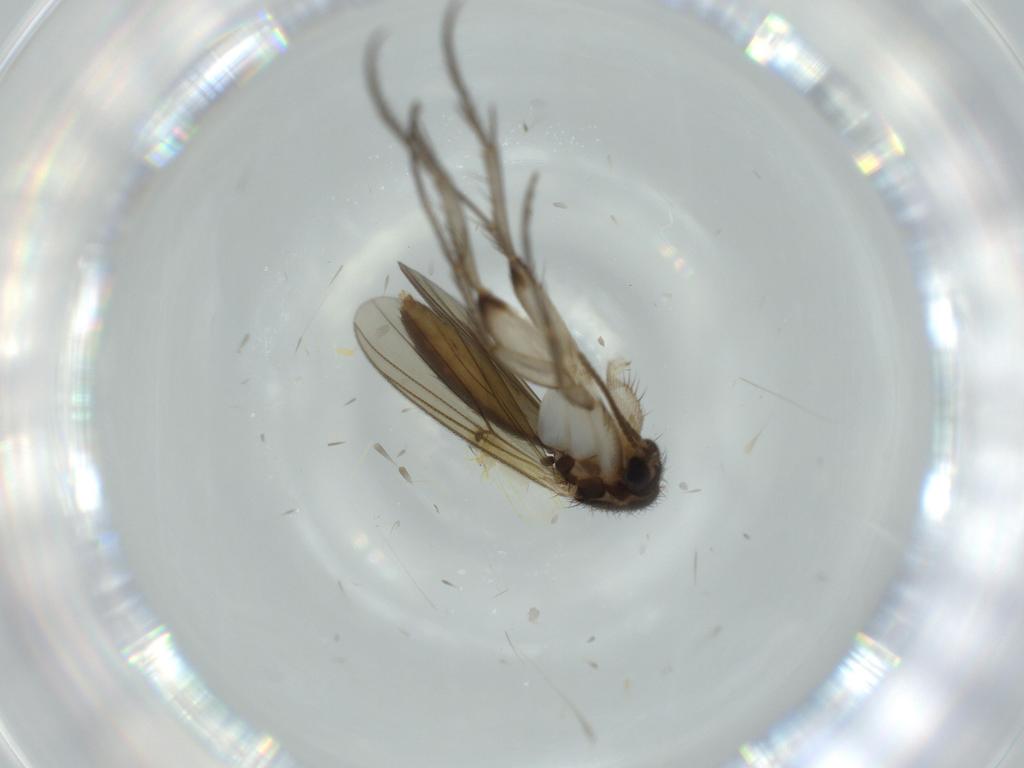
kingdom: Animalia
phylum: Arthropoda
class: Insecta
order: Diptera
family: Mycetophilidae
